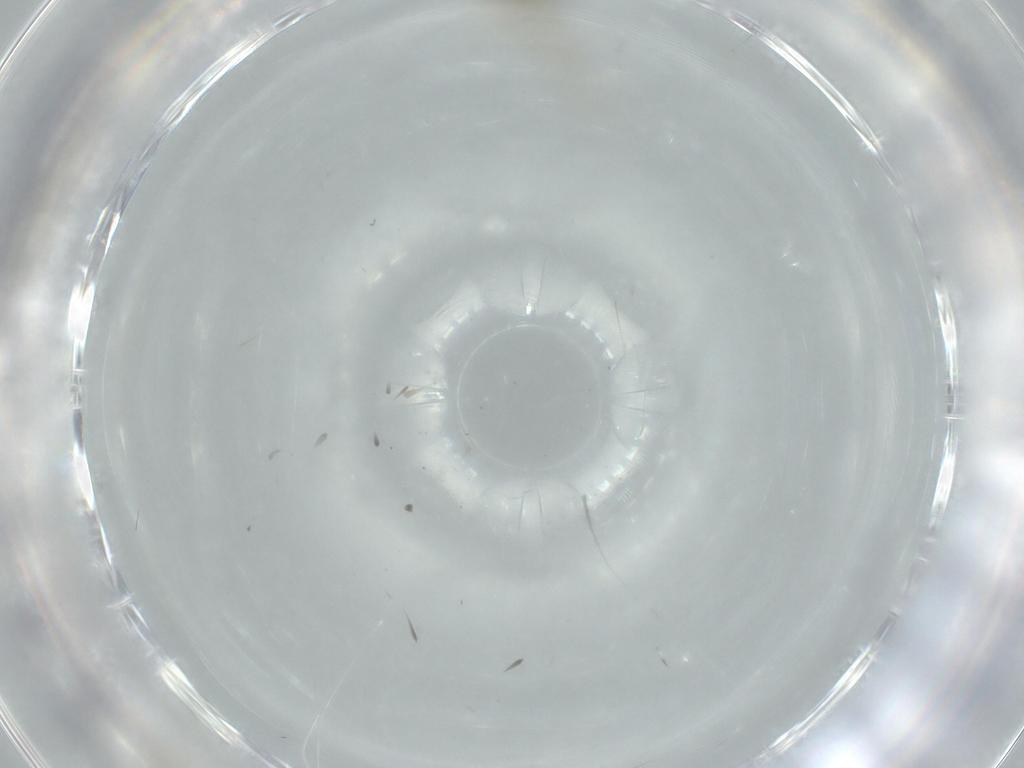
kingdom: Animalia
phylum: Arthropoda
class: Insecta
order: Diptera
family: Cecidomyiidae
